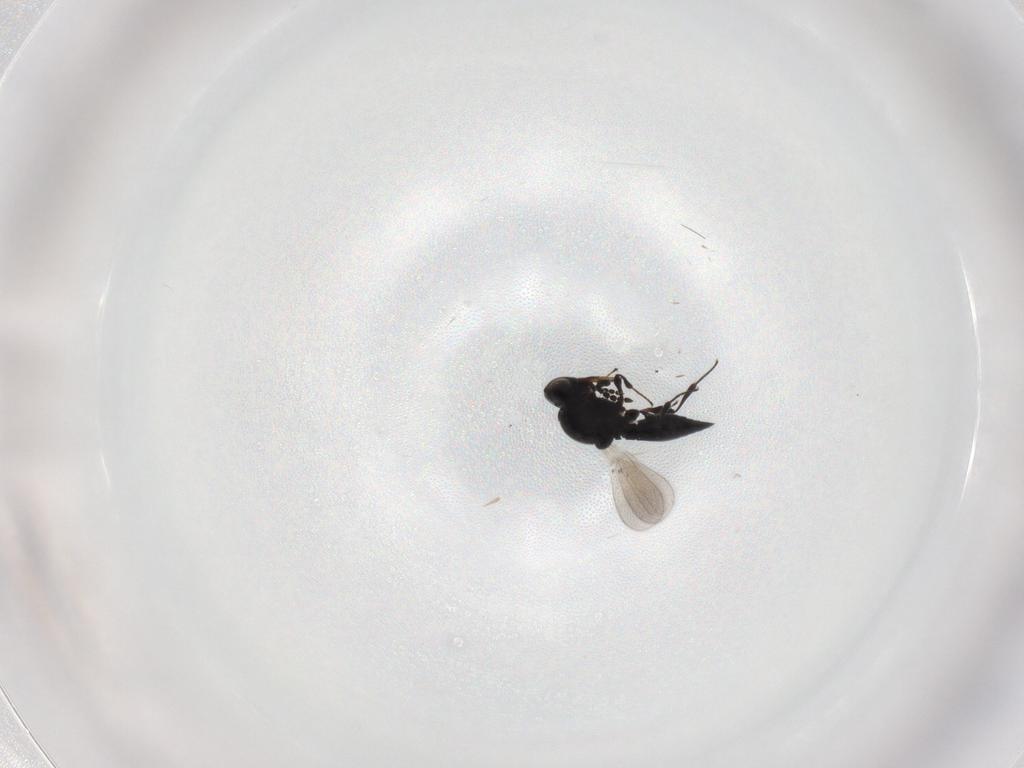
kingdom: Animalia
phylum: Arthropoda
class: Insecta
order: Hymenoptera
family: Platygastridae
